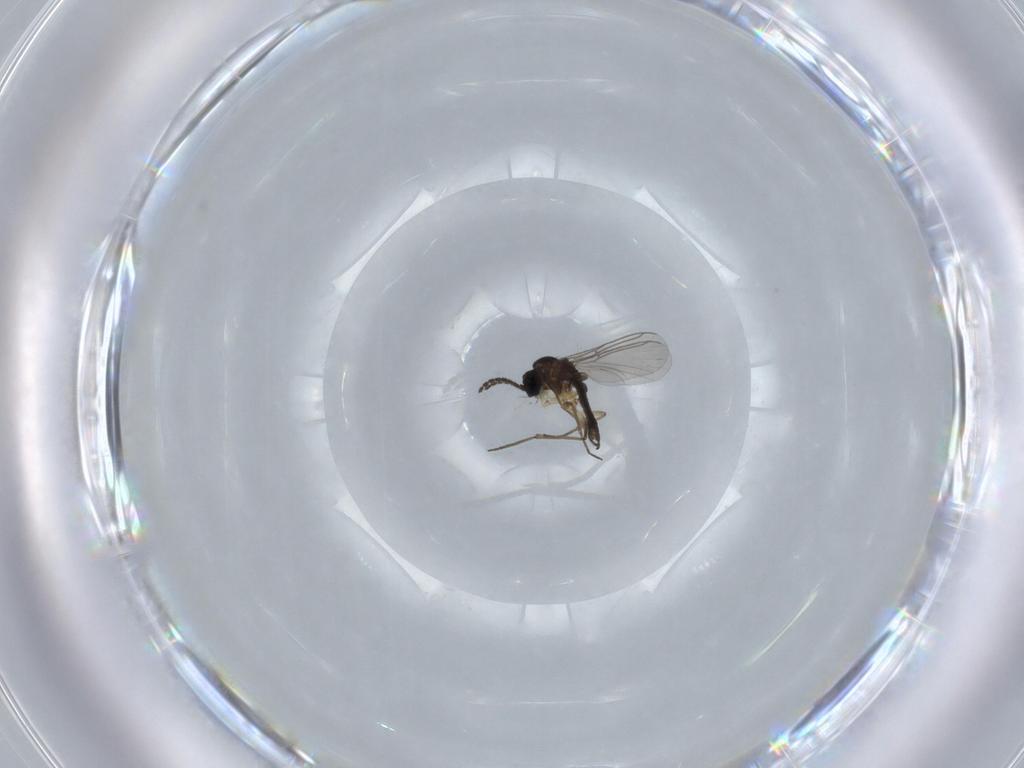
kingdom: Animalia
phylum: Arthropoda
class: Insecta
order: Diptera
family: Sciaridae
